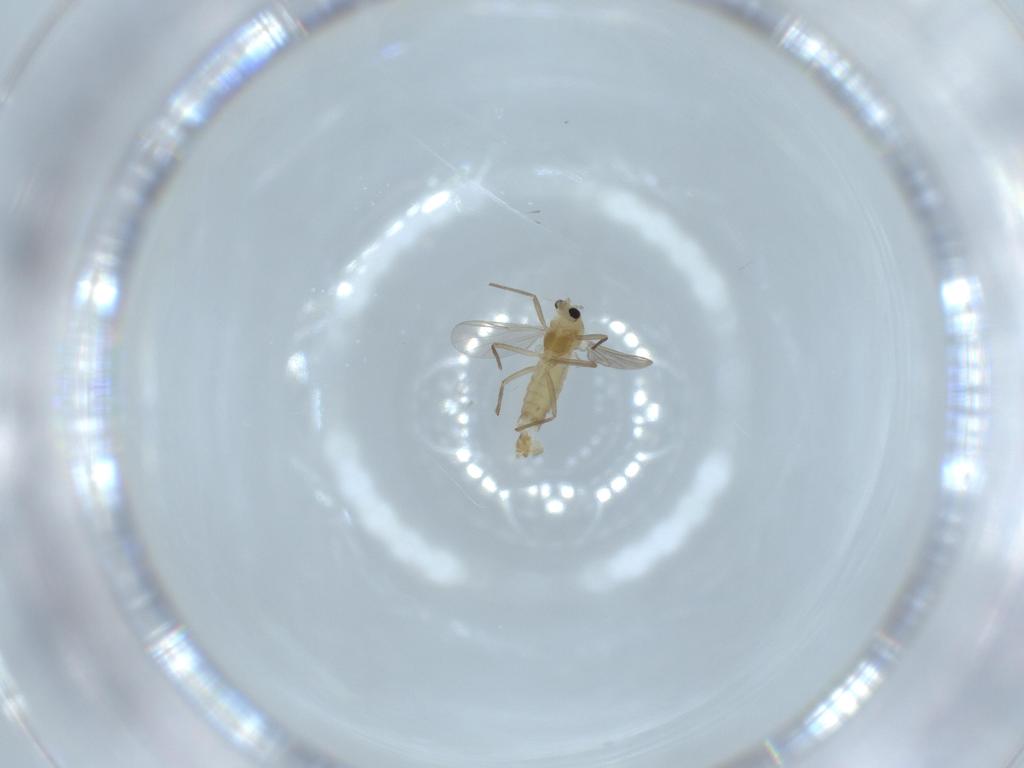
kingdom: Animalia
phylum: Arthropoda
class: Insecta
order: Diptera
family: Chironomidae
